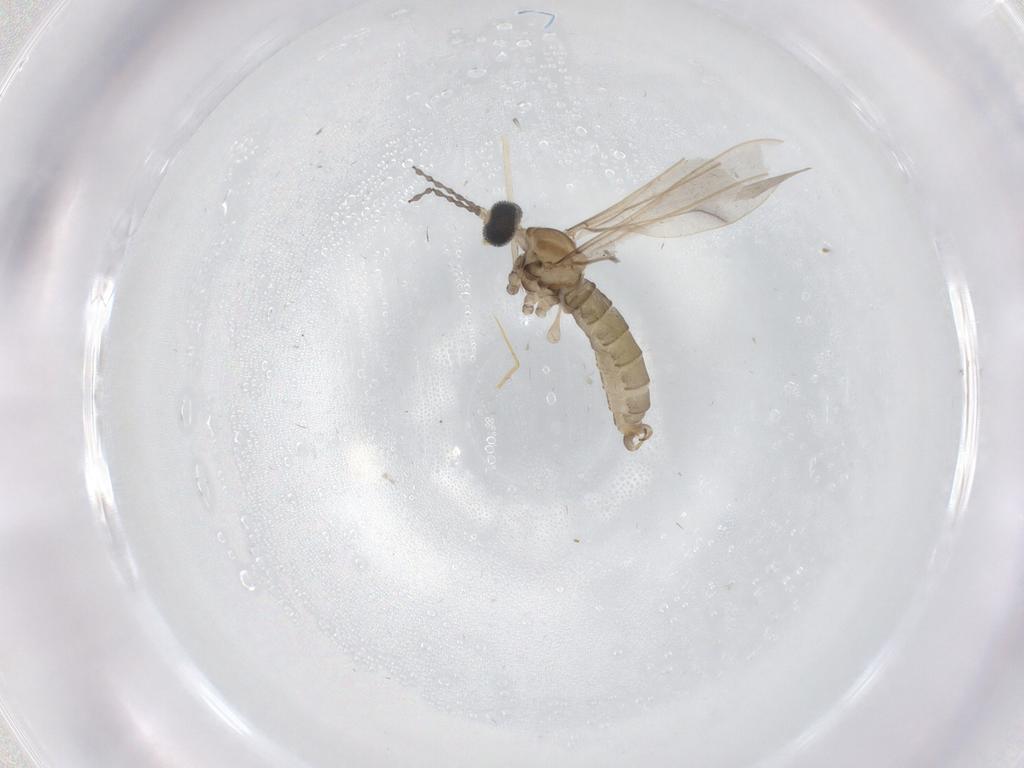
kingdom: Animalia
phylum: Arthropoda
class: Insecta
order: Diptera
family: Cecidomyiidae
